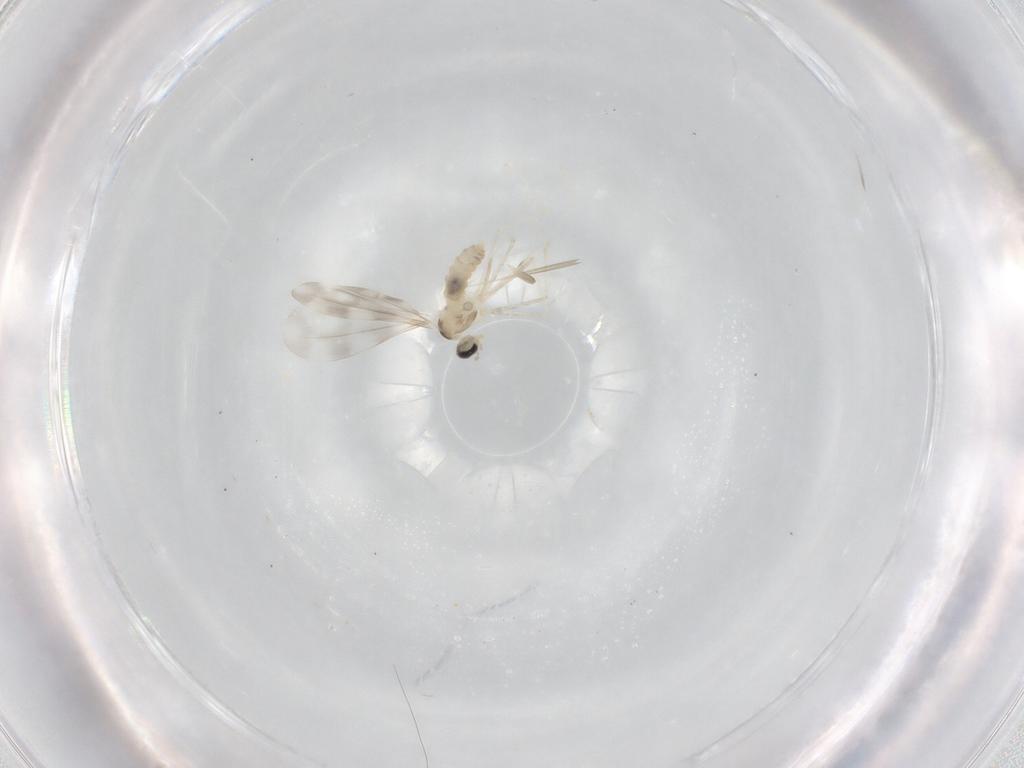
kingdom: Animalia
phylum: Arthropoda
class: Insecta
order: Diptera
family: Cecidomyiidae
